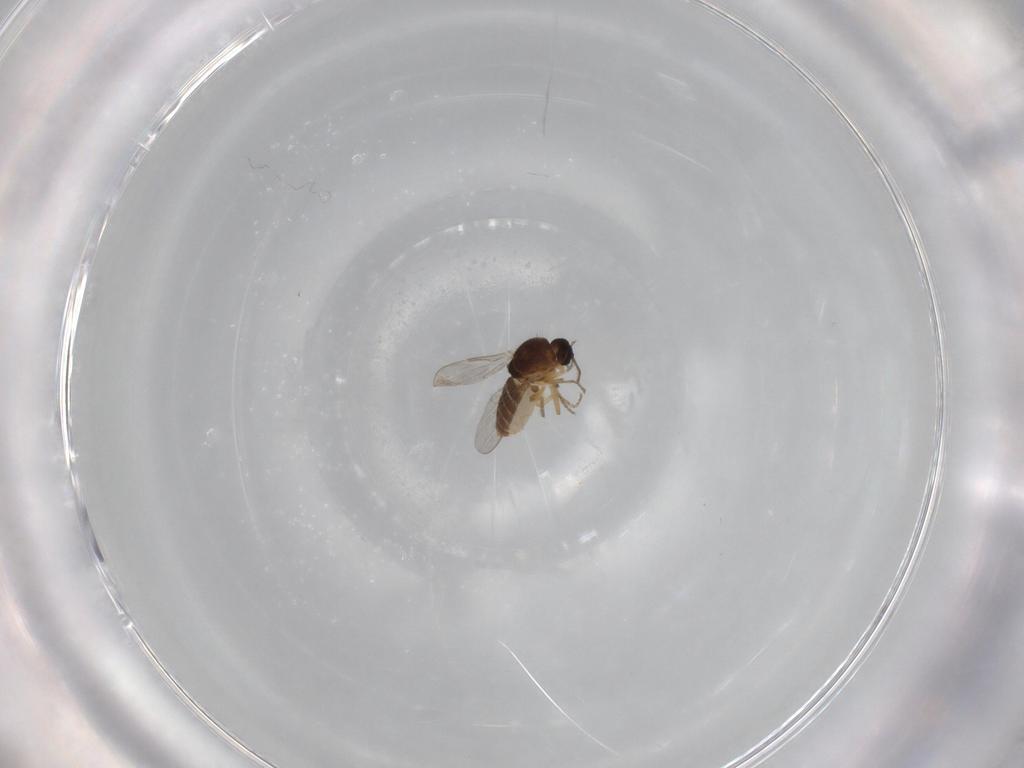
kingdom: Animalia
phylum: Arthropoda
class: Insecta
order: Diptera
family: Ceratopogonidae
